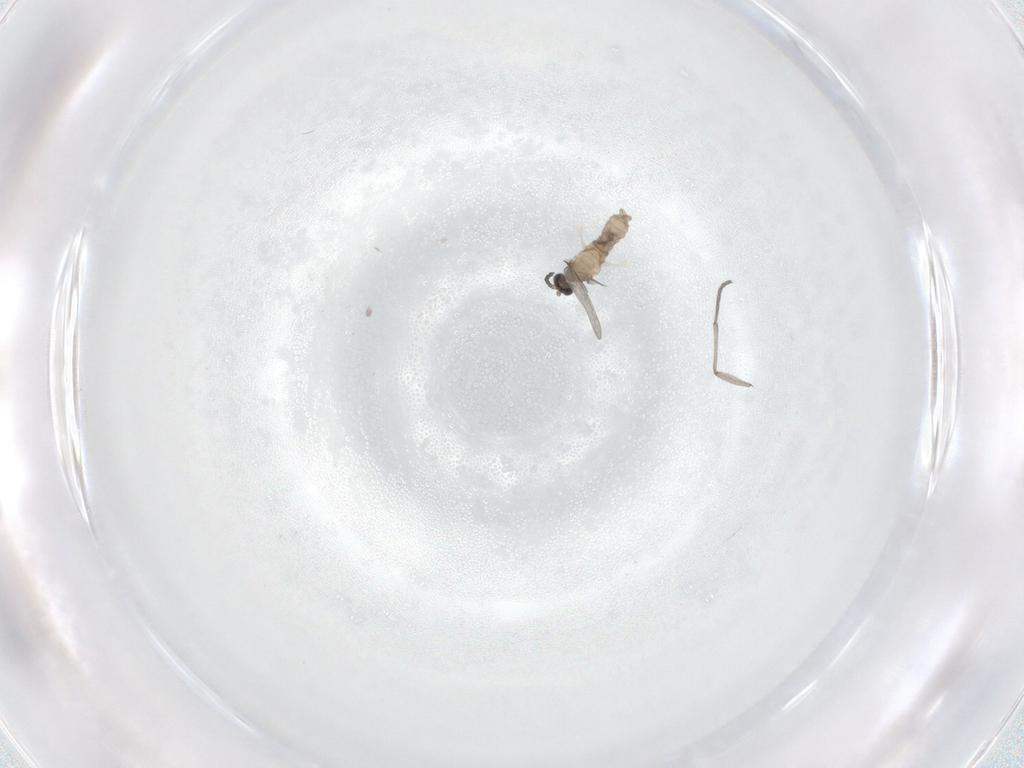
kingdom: Animalia
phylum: Arthropoda
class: Insecta
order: Diptera
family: Cecidomyiidae
